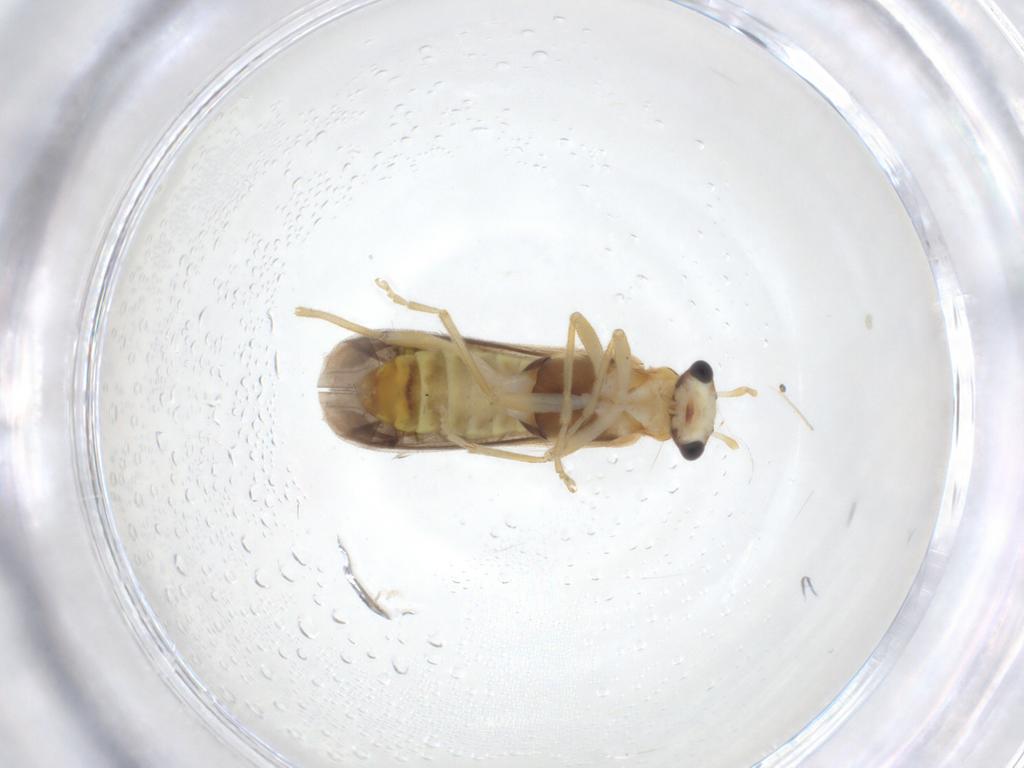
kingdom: Animalia
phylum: Arthropoda
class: Insecta
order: Coleoptera
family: Cantharidae
